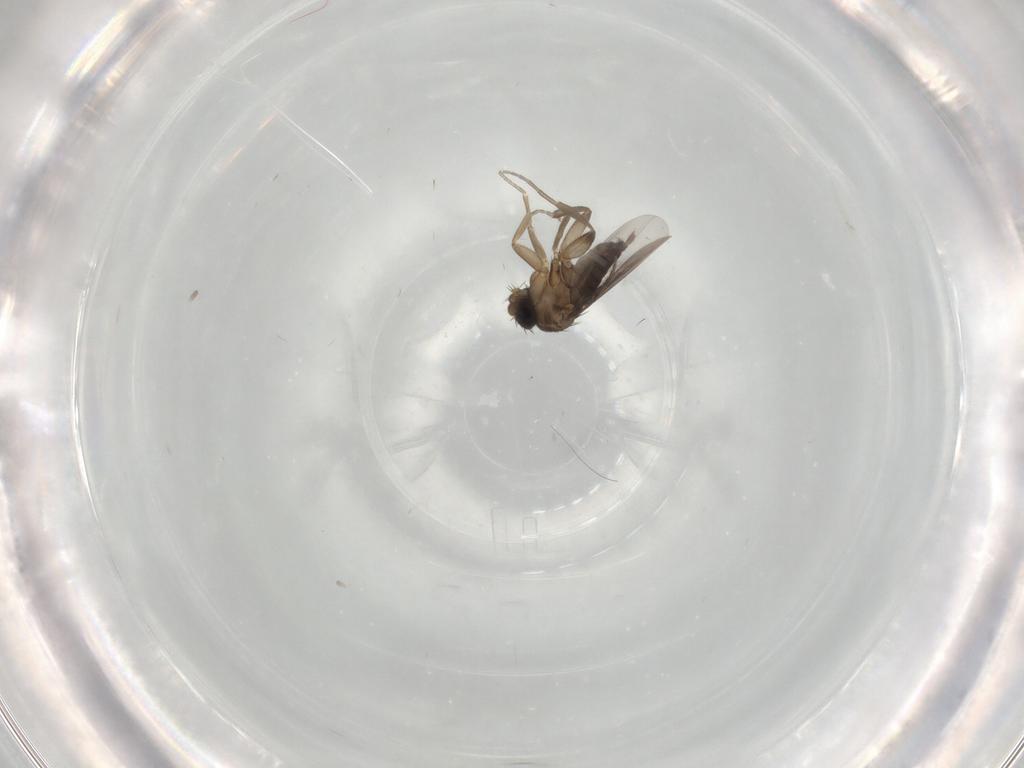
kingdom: Animalia
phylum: Arthropoda
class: Insecta
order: Diptera
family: Phoridae
